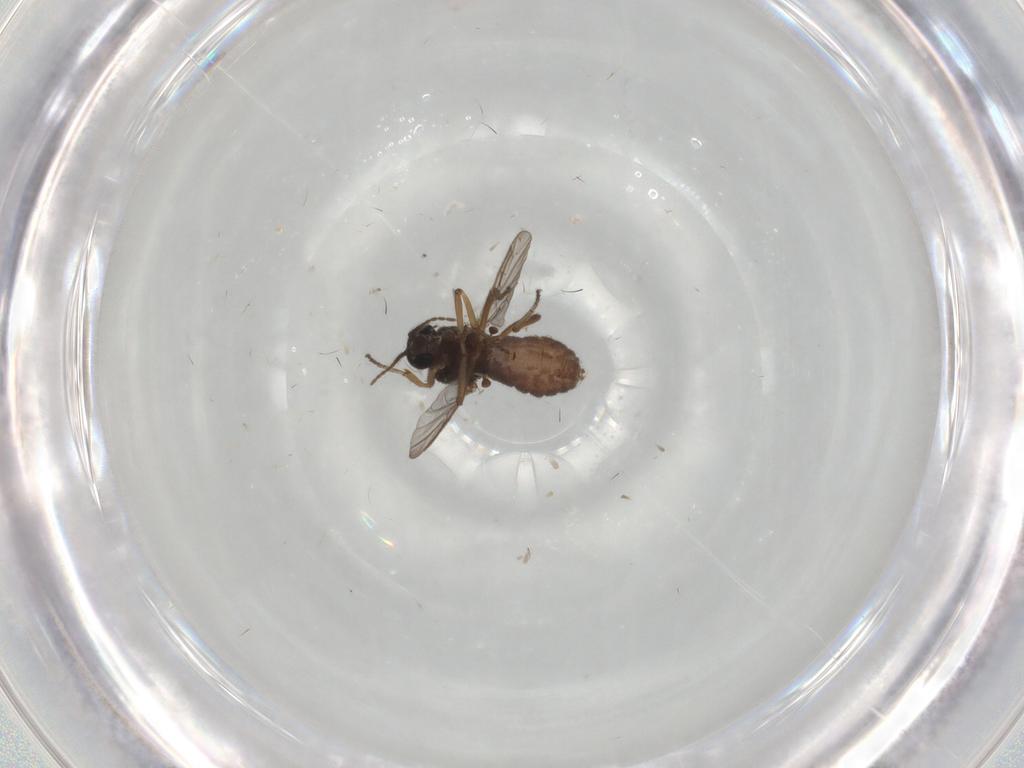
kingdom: Animalia
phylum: Arthropoda
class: Insecta
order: Diptera
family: Ceratopogonidae
